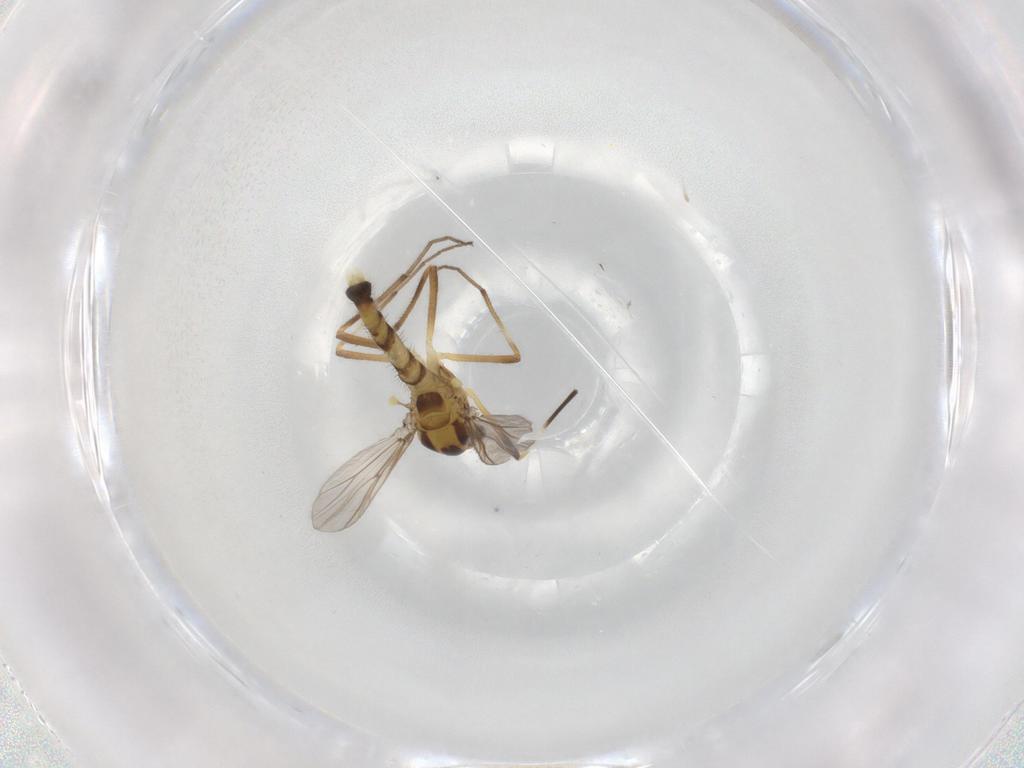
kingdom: Animalia
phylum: Arthropoda
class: Insecta
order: Diptera
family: Chironomidae
